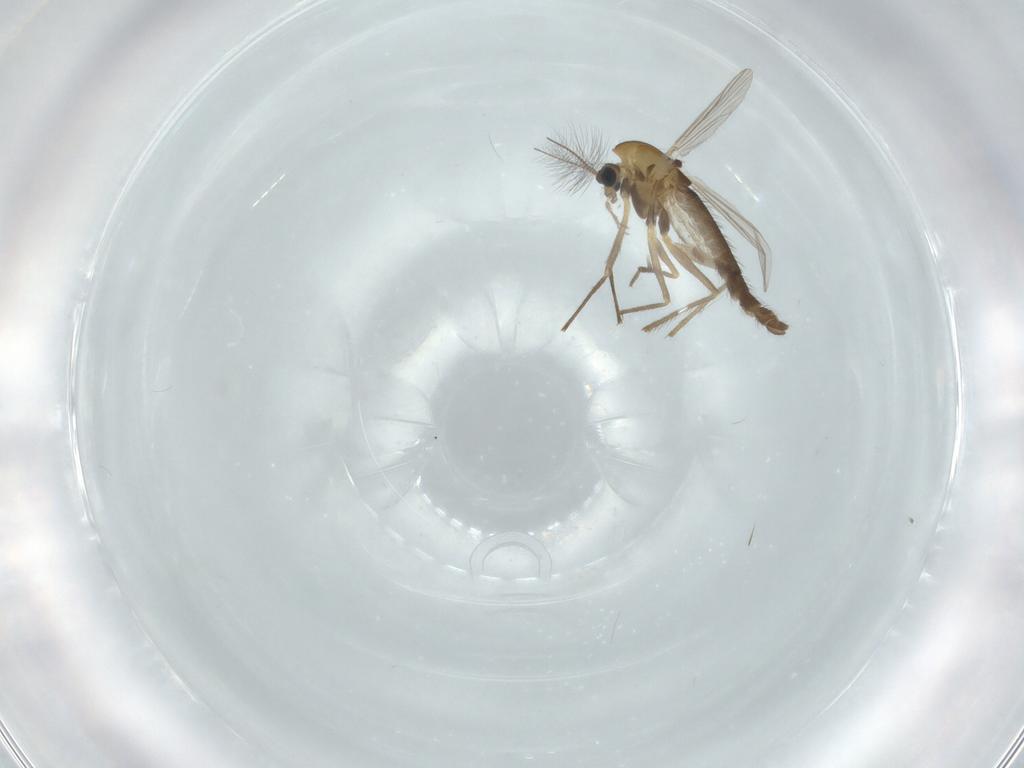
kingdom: Animalia
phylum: Arthropoda
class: Insecta
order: Diptera
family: Chironomidae
